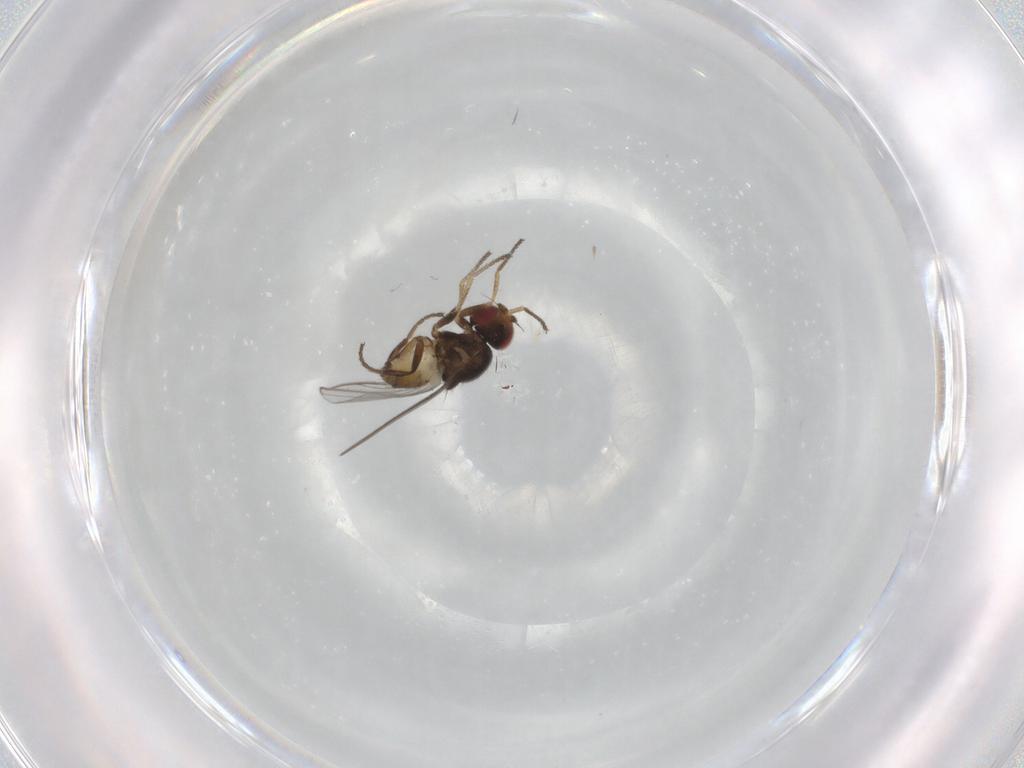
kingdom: Animalia
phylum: Arthropoda
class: Insecta
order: Diptera
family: Chloropidae
